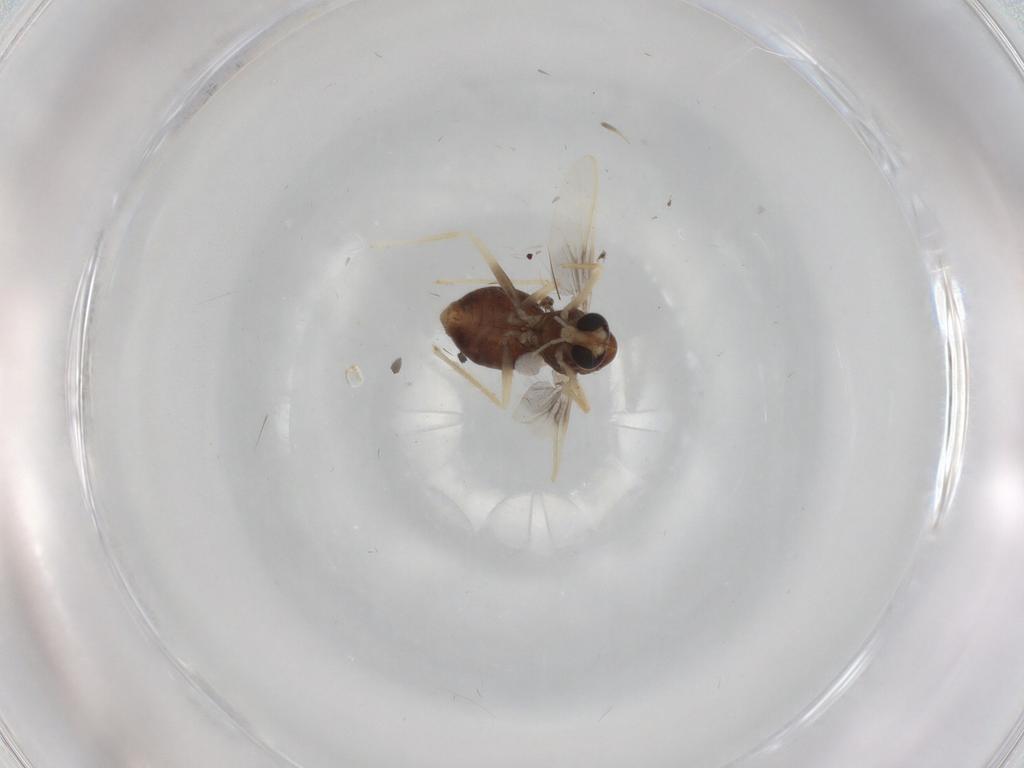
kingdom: Animalia
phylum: Arthropoda
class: Insecta
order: Diptera
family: Chironomidae
